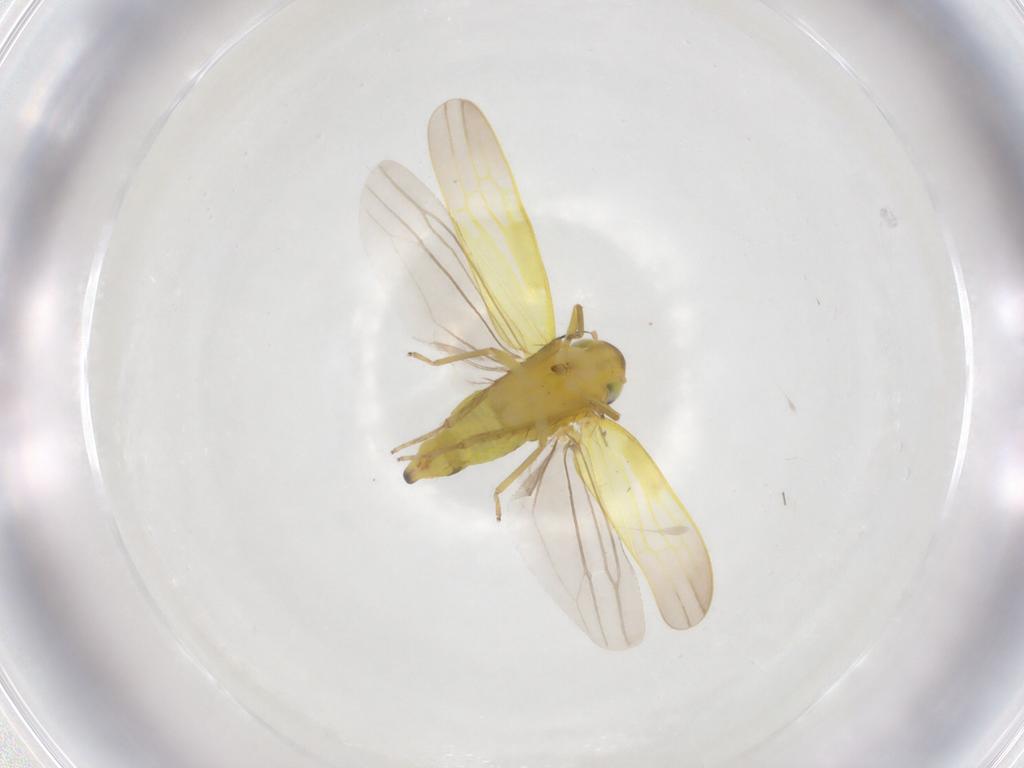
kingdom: Animalia
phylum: Arthropoda
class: Insecta
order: Hemiptera
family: Cicadellidae
